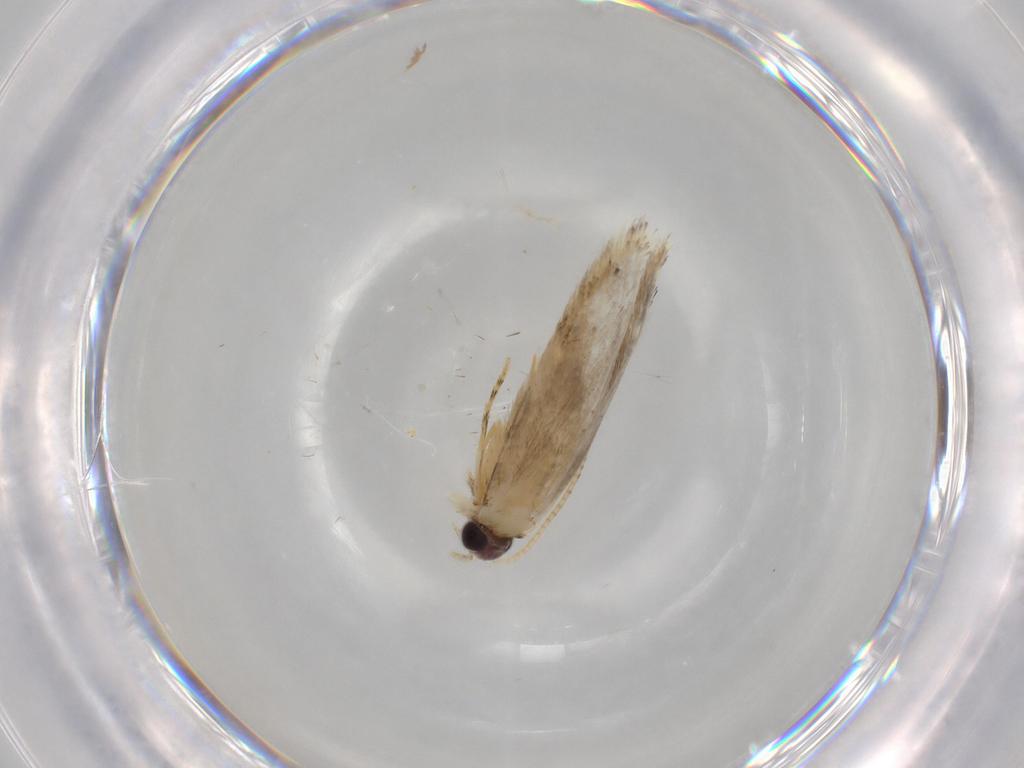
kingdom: Animalia
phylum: Arthropoda
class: Insecta
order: Lepidoptera
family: Nepticulidae
